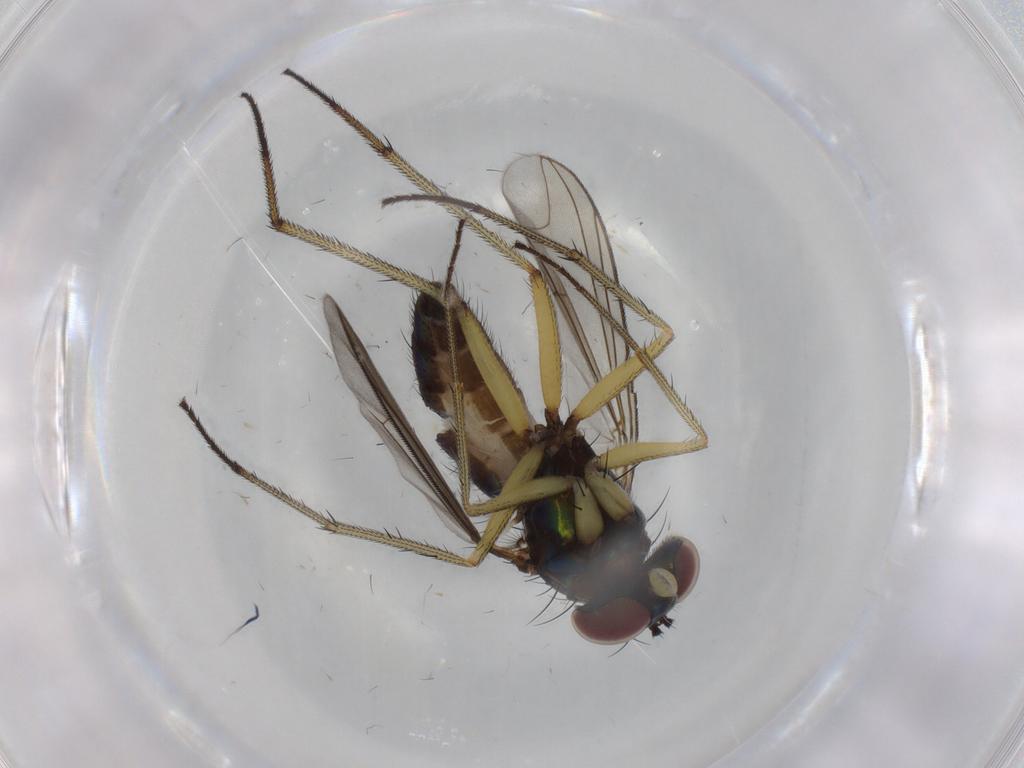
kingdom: Animalia
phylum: Arthropoda
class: Insecta
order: Diptera
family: Dolichopodidae
